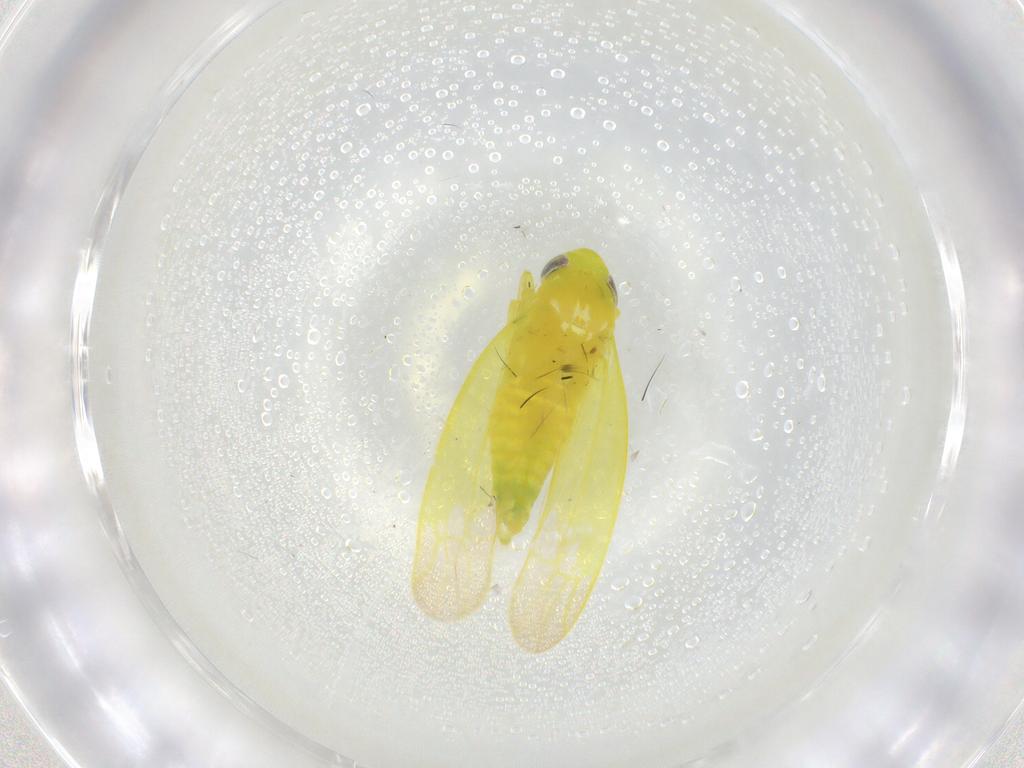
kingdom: Animalia
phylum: Arthropoda
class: Insecta
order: Hemiptera
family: Cicadellidae
